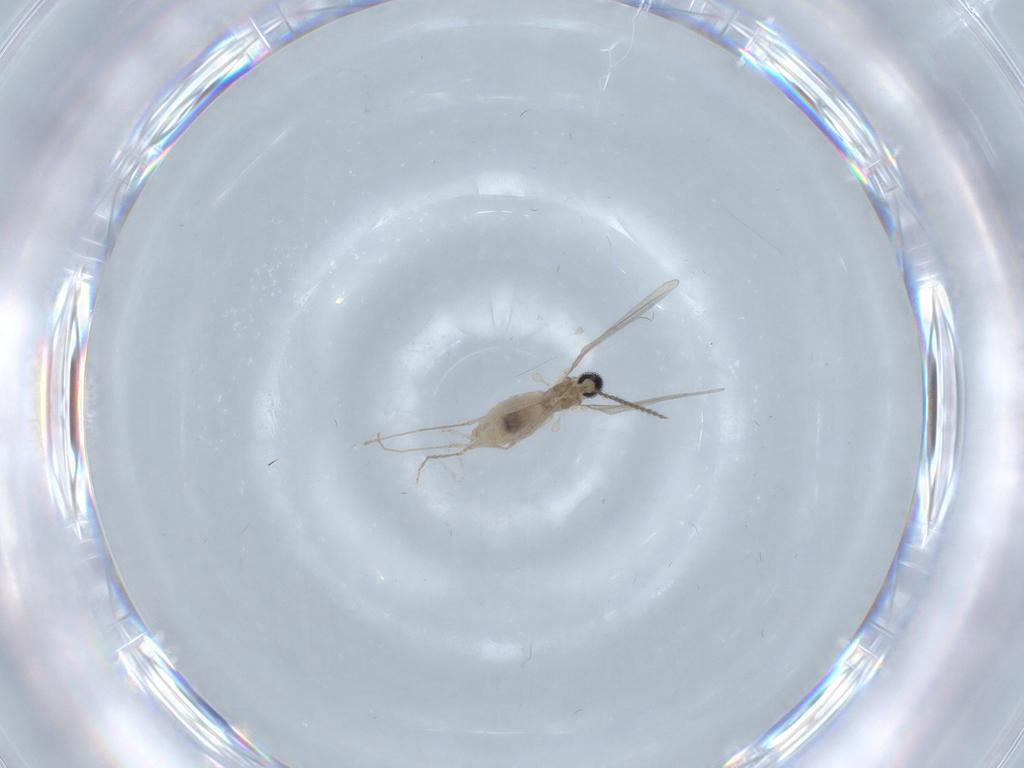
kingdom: Animalia
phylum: Arthropoda
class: Insecta
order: Diptera
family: Cecidomyiidae
